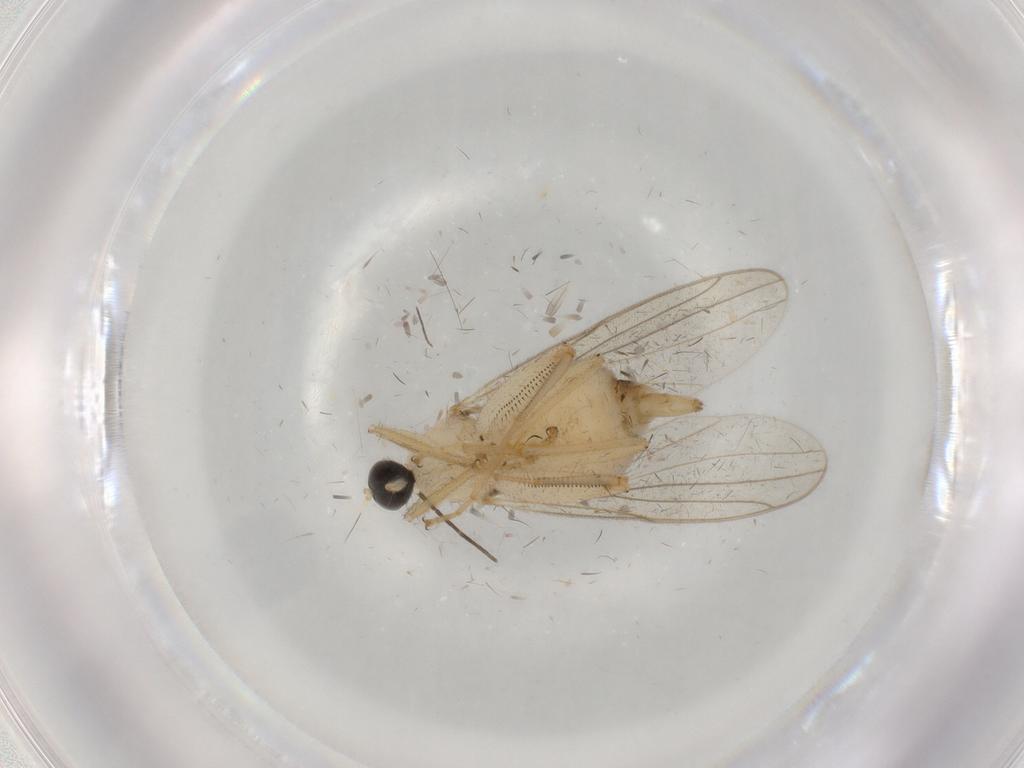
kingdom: Animalia
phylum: Arthropoda
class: Insecta
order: Diptera
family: Hybotidae
